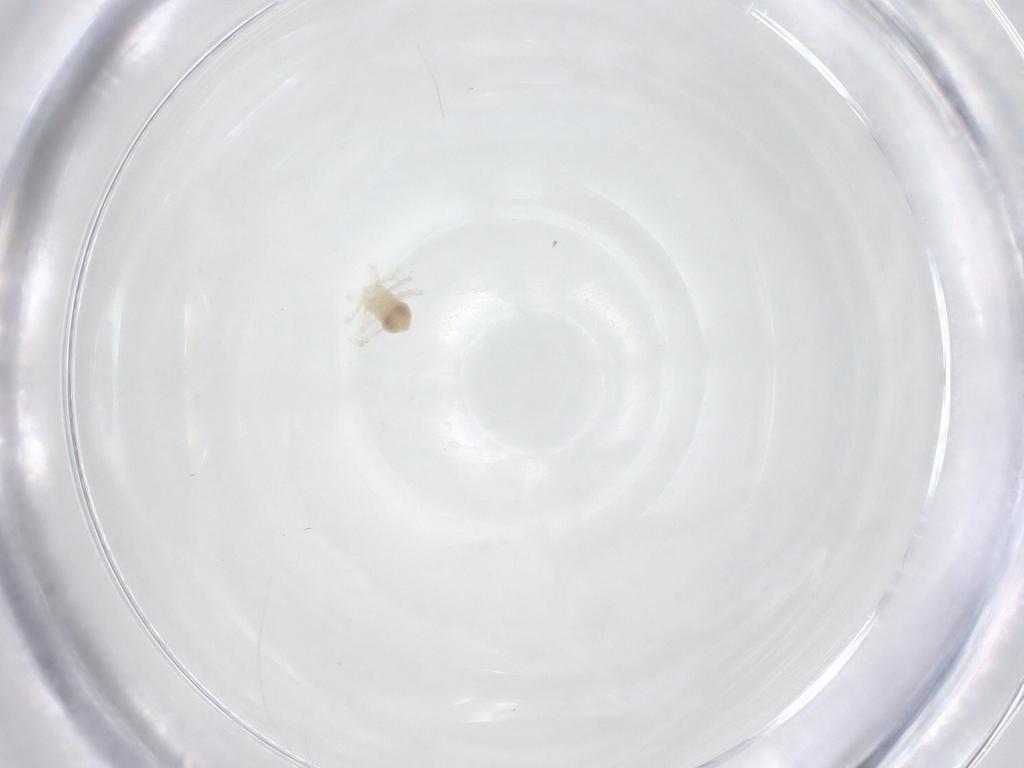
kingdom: Animalia
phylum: Arthropoda
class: Arachnida
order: Trombidiformes
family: Anystidae
